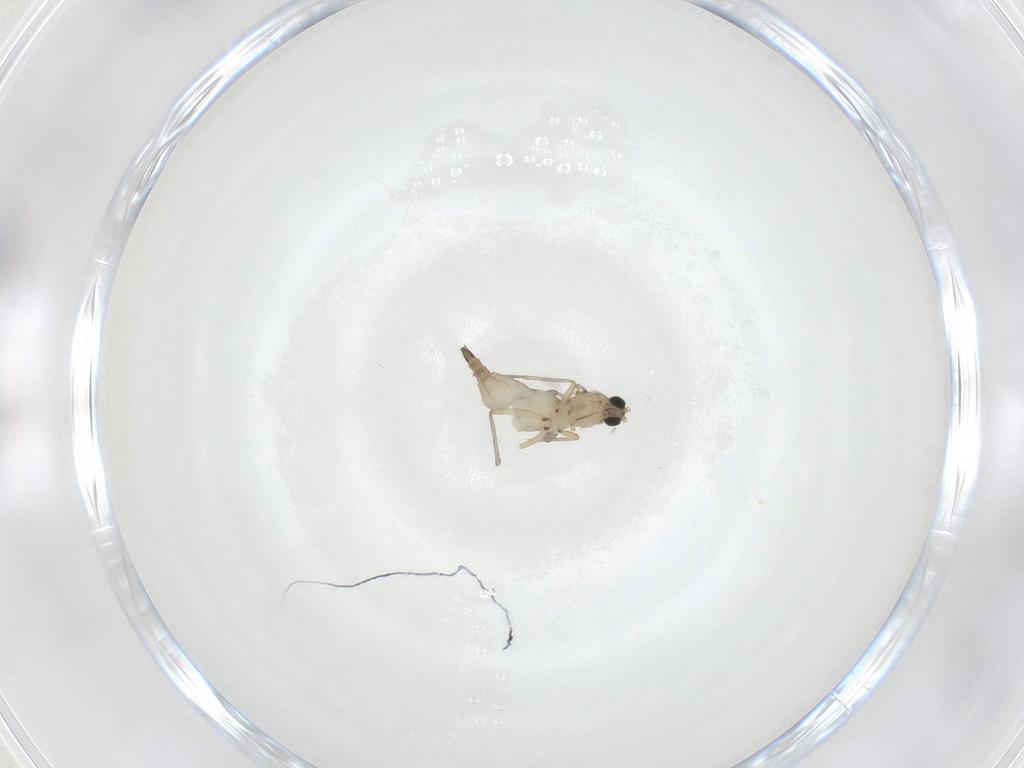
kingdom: Animalia
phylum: Arthropoda
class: Insecta
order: Diptera
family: Sciaridae
